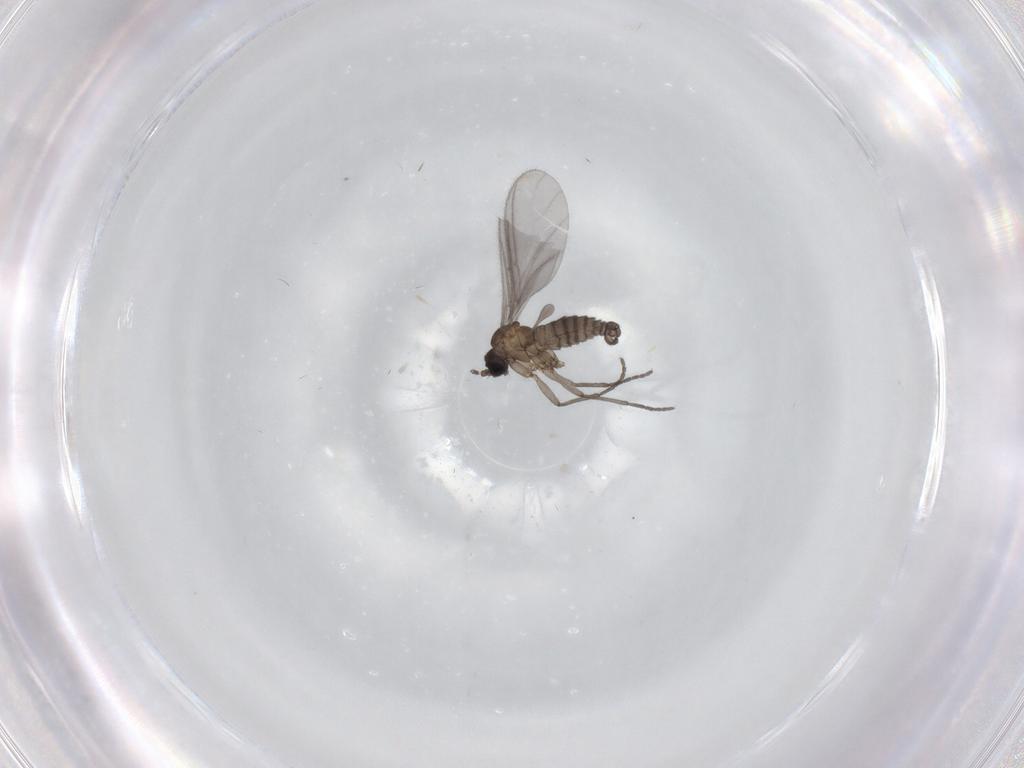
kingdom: Animalia
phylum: Arthropoda
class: Insecta
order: Diptera
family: Sciaridae
